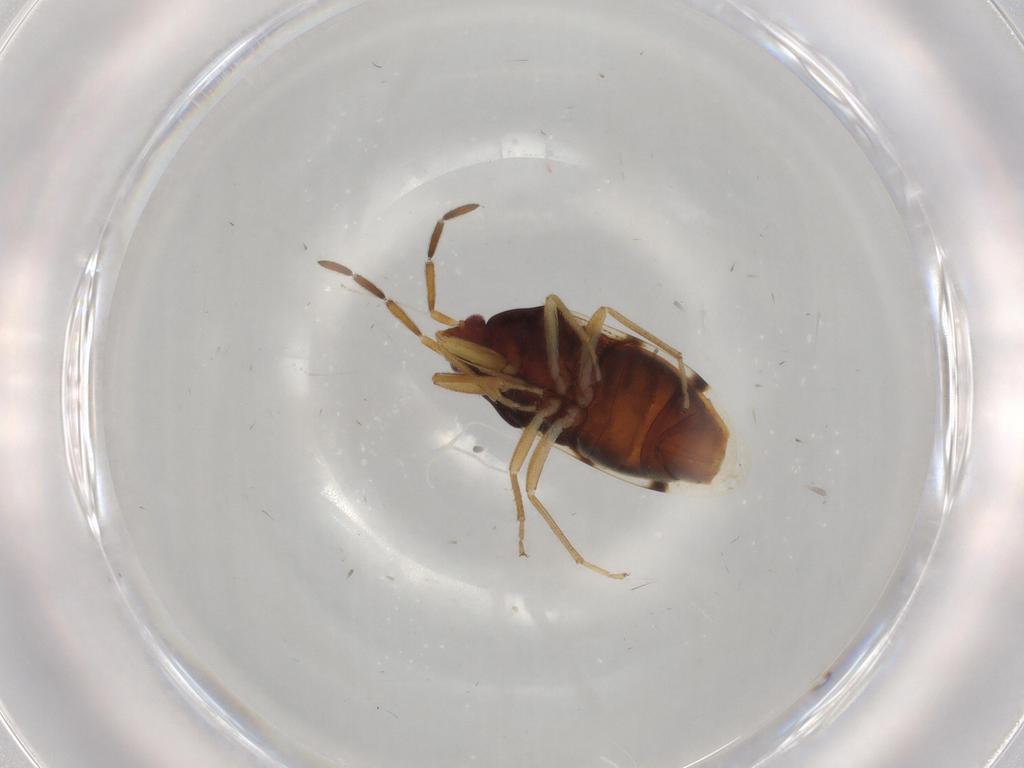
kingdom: Animalia
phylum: Arthropoda
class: Insecta
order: Hemiptera
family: Rhyparochromidae
